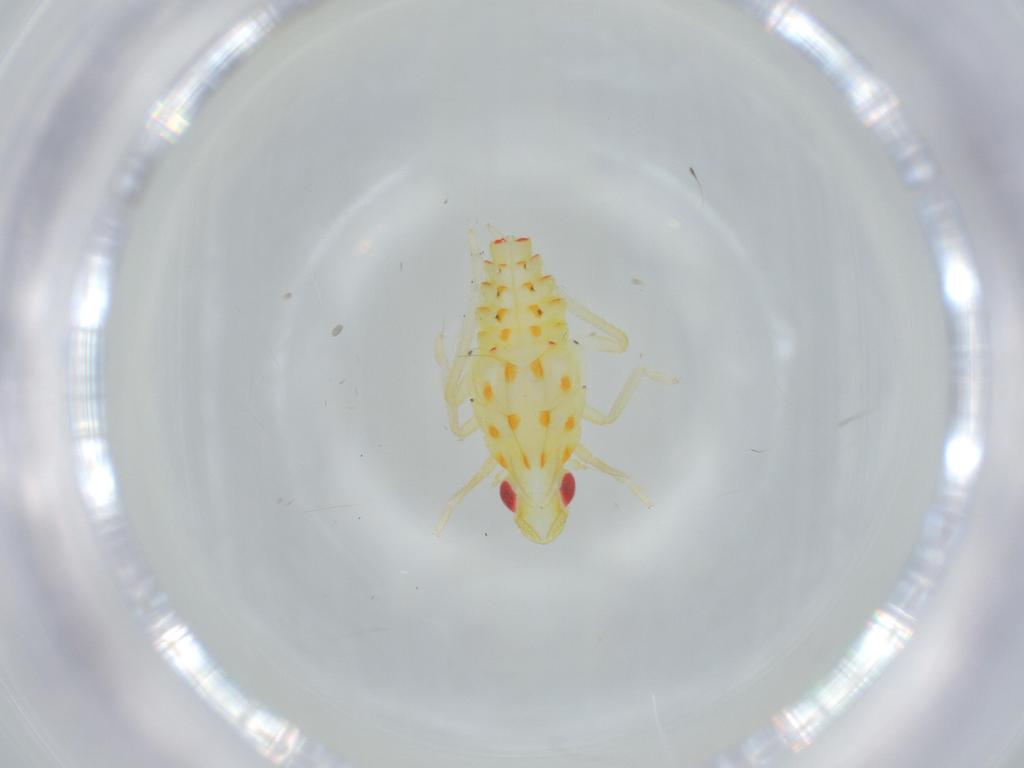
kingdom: Animalia
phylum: Arthropoda
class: Insecta
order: Hemiptera
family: Tropiduchidae
